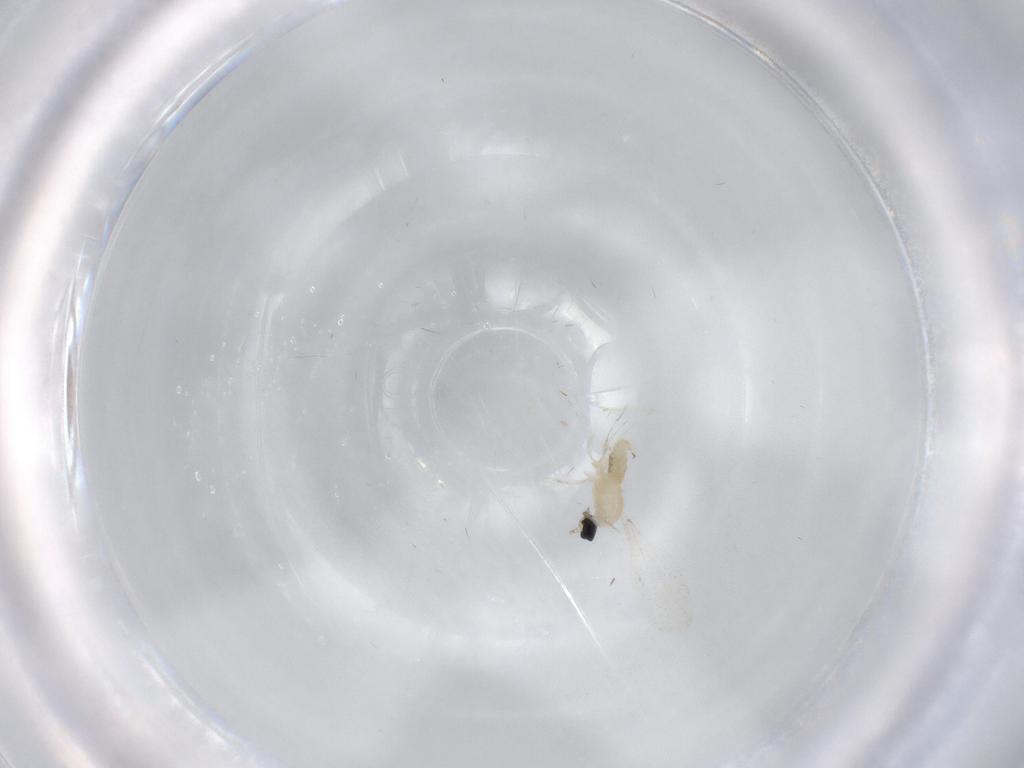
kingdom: Animalia
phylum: Arthropoda
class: Insecta
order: Diptera
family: Cecidomyiidae
